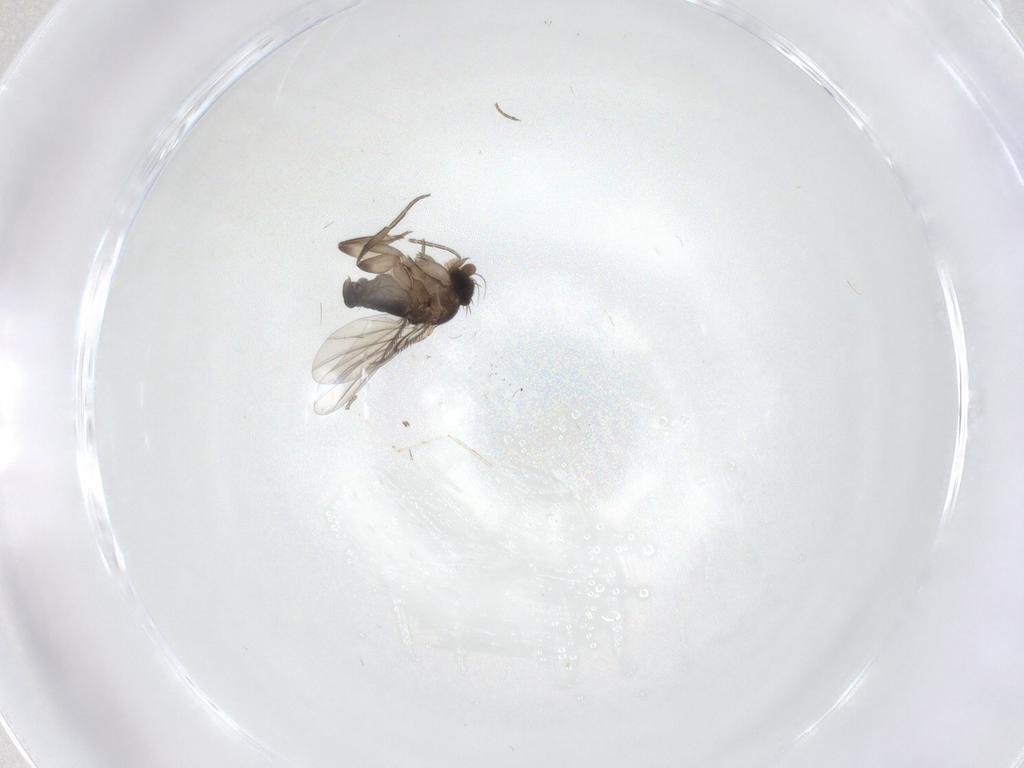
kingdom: Animalia
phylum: Arthropoda
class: Insecta
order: Diptera
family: Phoridae
